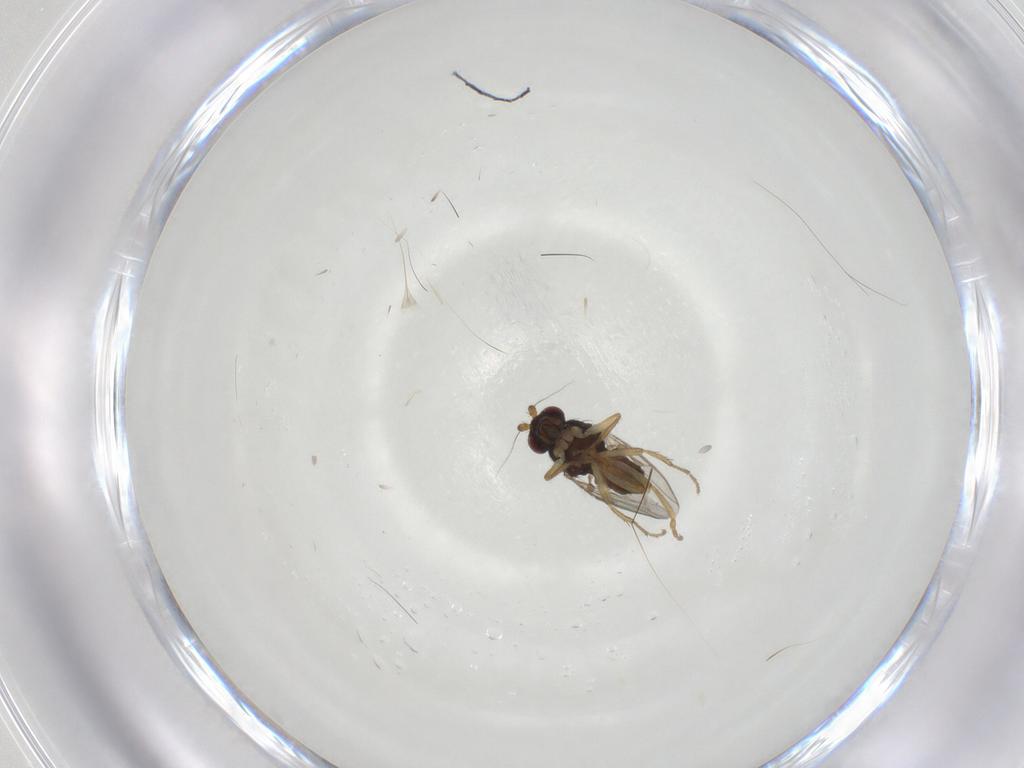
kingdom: Animalia
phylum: Arthropoda
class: Insecta
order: Diptera
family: Sphaeroceridae
